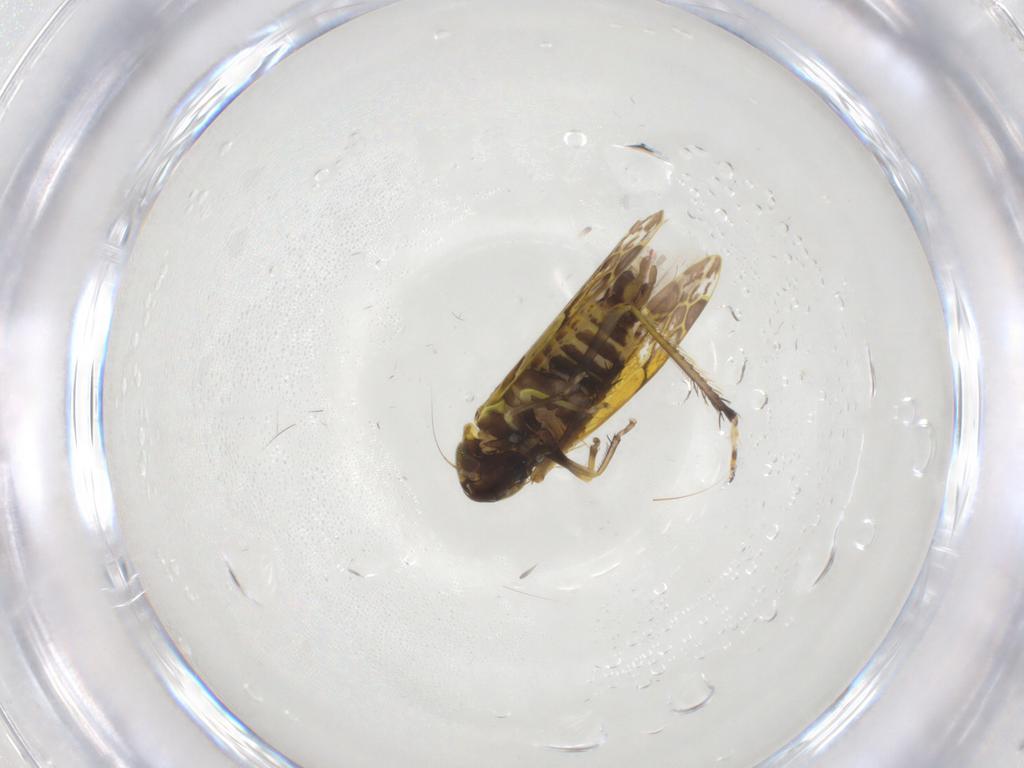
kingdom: Animalia
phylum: Arthropoda
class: Insecta
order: Hemiptera
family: Cicadellidae
